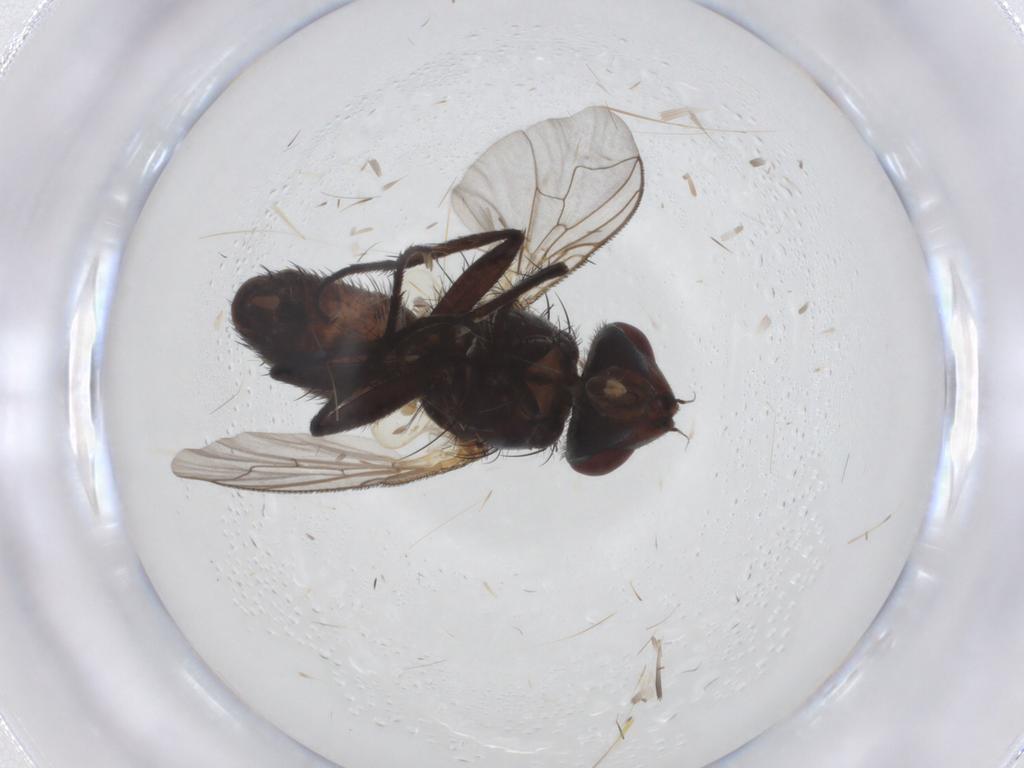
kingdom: Animalia
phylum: Arthropoda
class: Insecta
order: Diptera
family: Sarcophagidae
